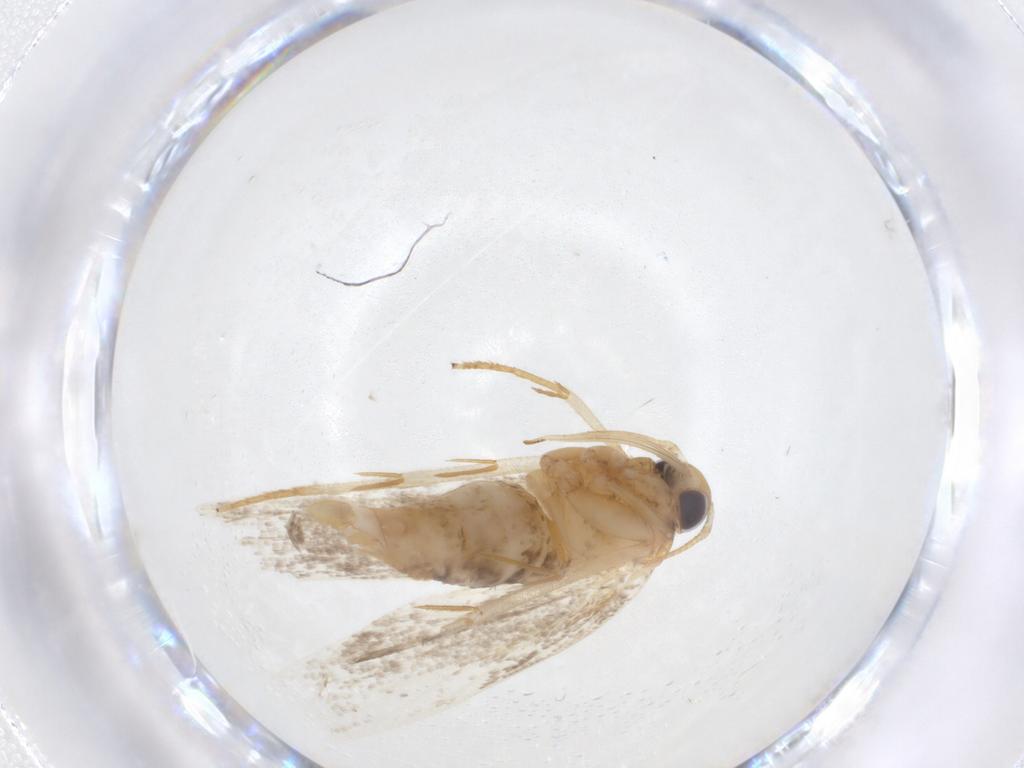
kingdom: Animalia
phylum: Arthropoda
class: Insecta
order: Lepidoptera
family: Oecophoridae
